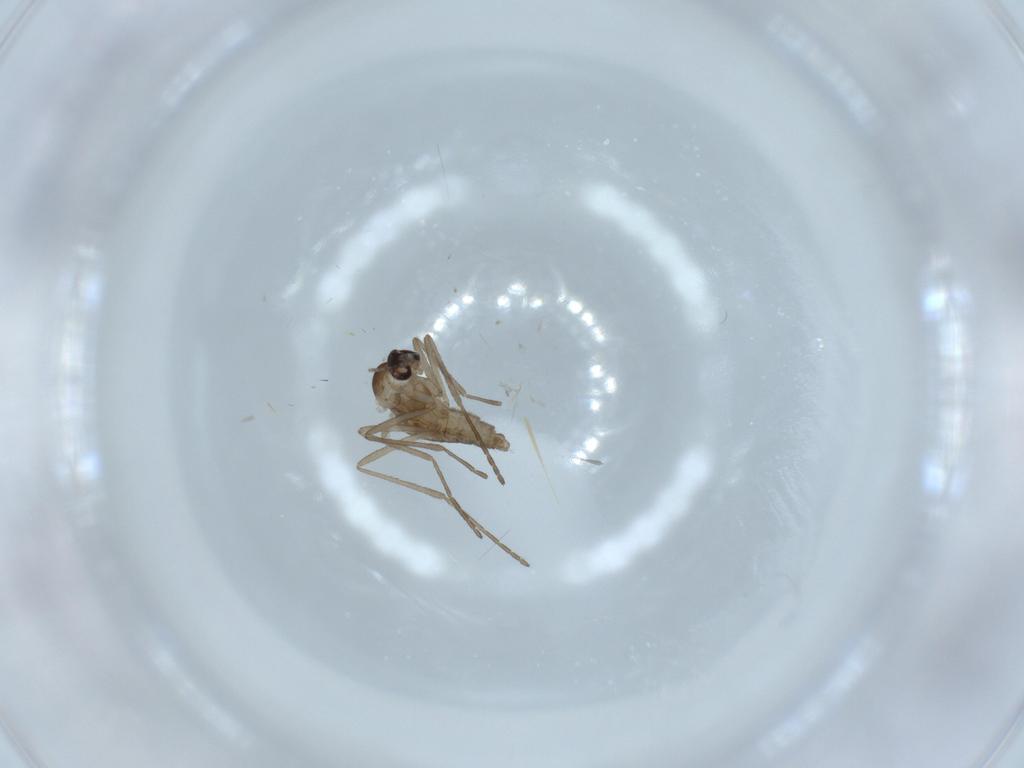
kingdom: Animalia
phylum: Arthropoda
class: Insecta
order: Diptera
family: Cecidomyiidae
